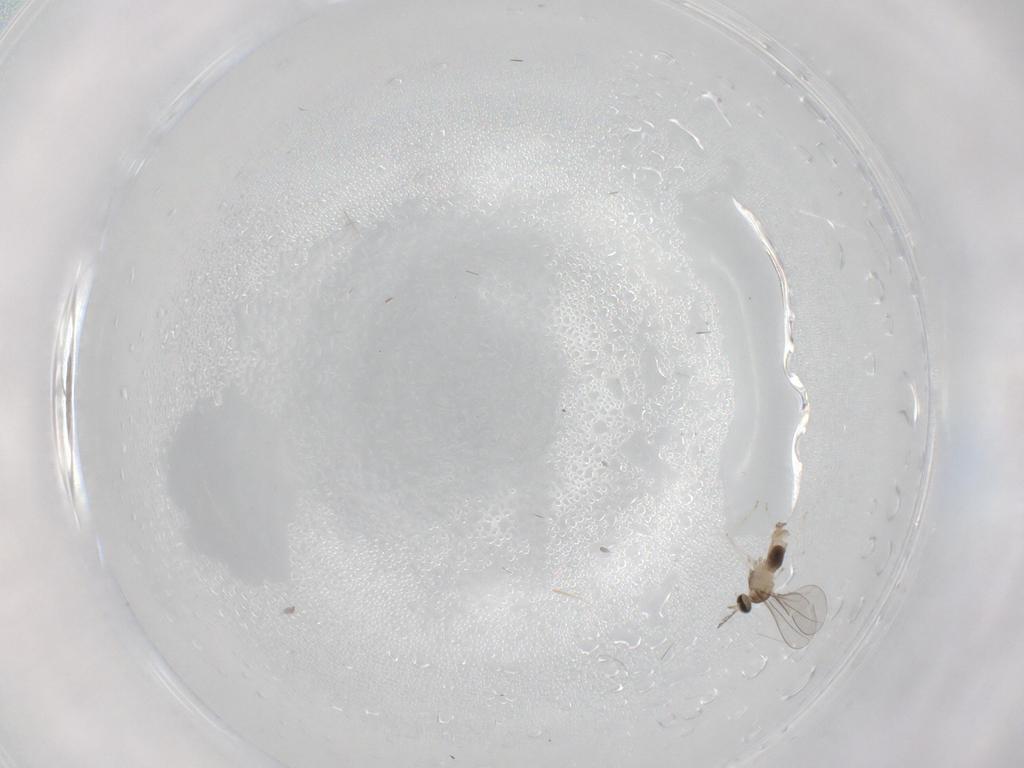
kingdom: Animalia
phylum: Arthropoda
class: Insecta
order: Diptera
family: Cecidomyiidae
